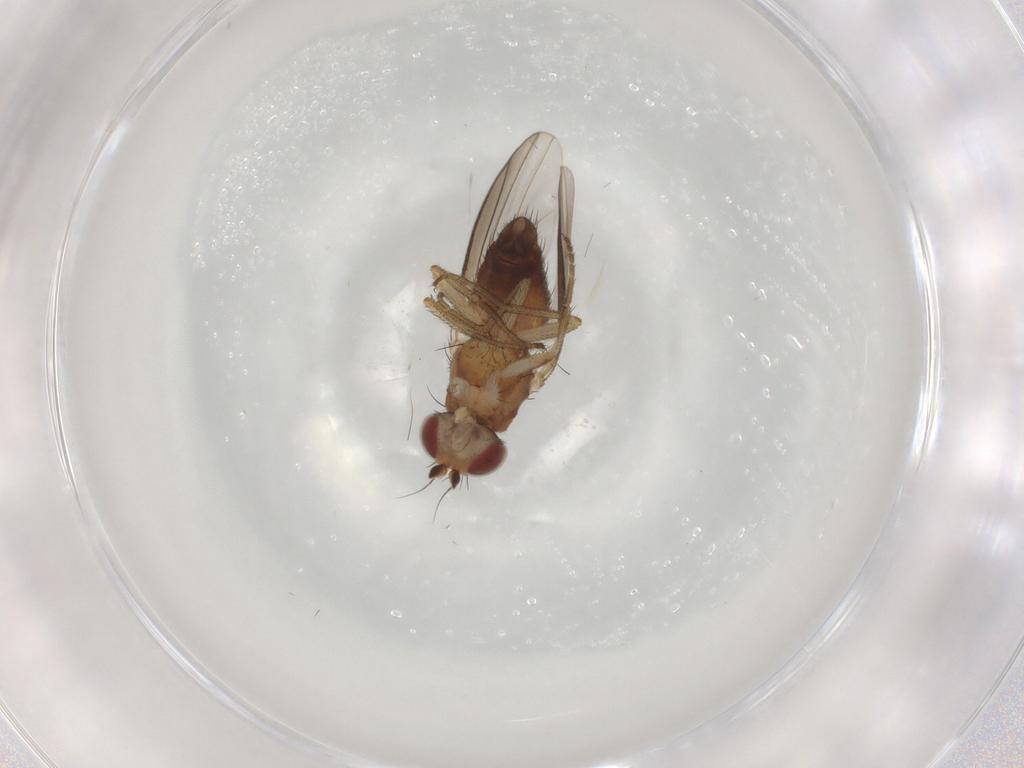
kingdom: Animalia
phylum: Arthropoda
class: Insecta
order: Diptera
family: Heleomyzidae
